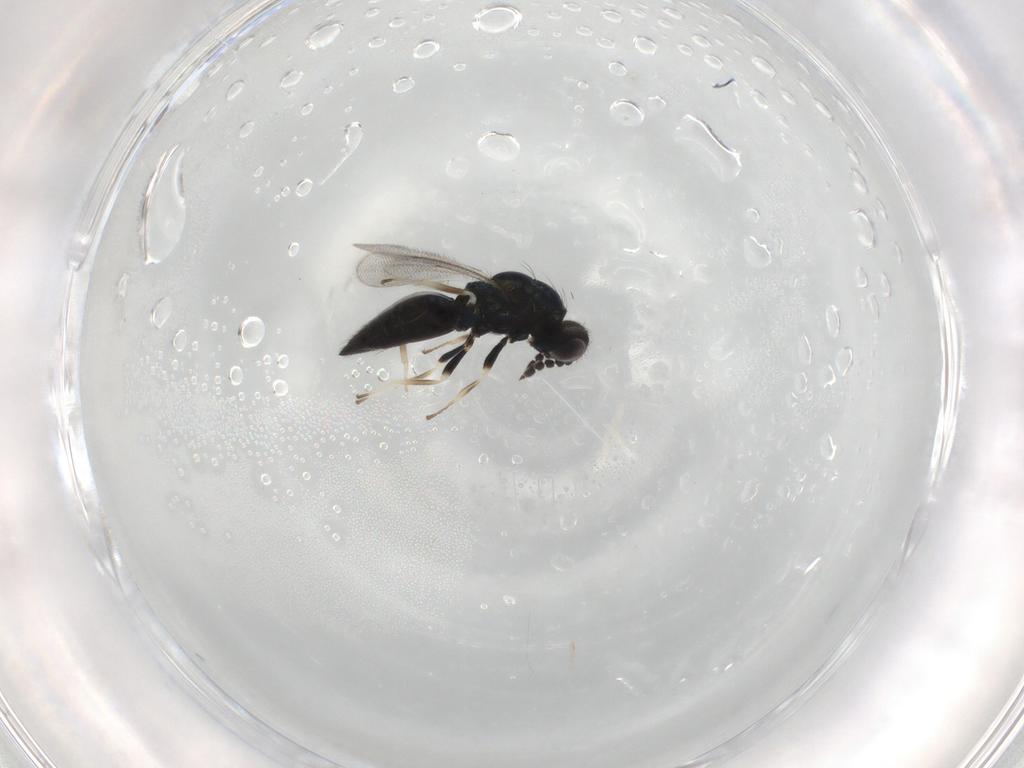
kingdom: Animalia
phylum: Arthropoda
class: Insecta
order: Hymenoptera
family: Eulophidae
